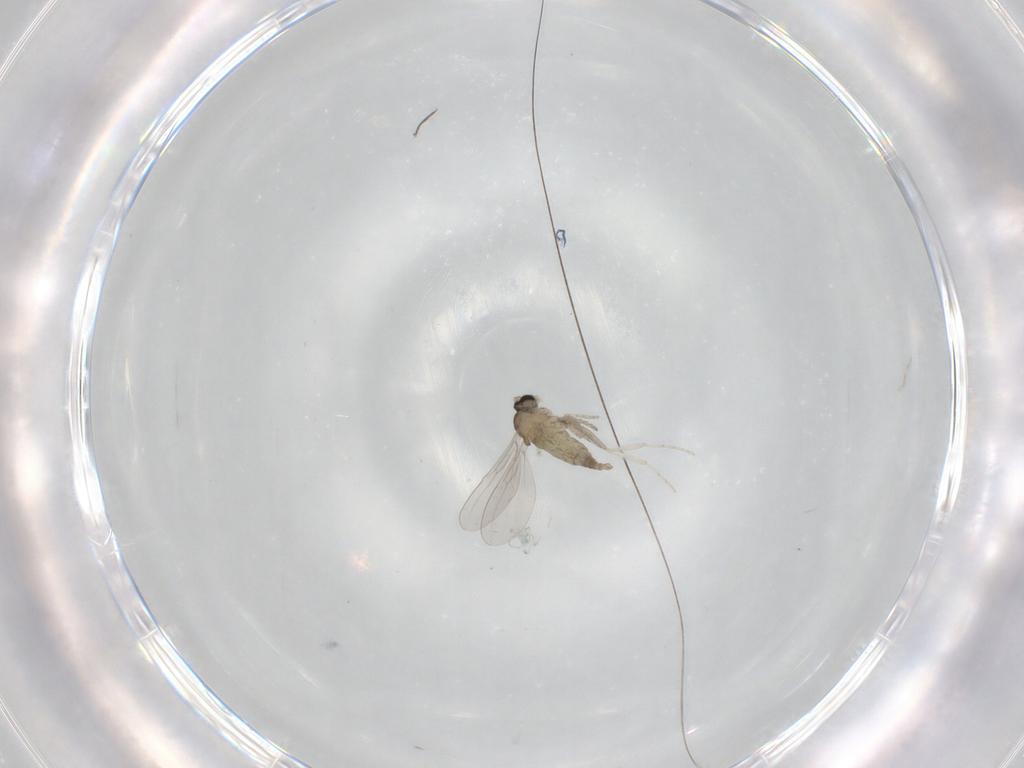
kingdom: Animalia
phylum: Arthropoda
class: Insecta
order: Diptera
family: Cecidomyiidae
